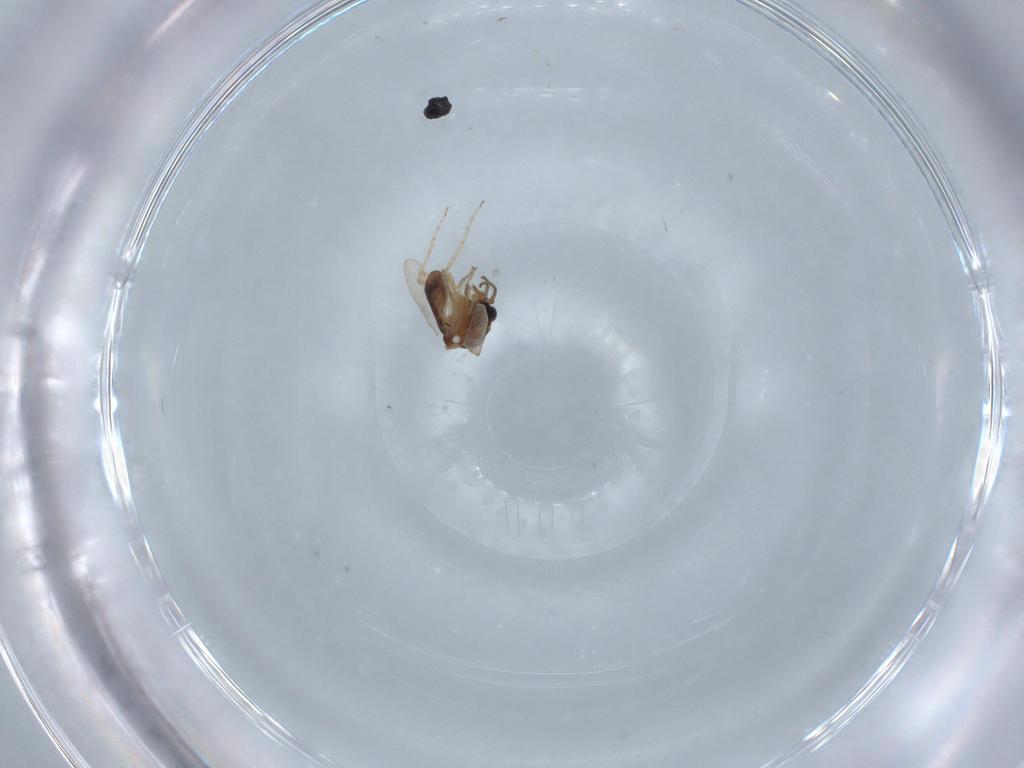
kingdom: Animalia
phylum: Arthropoda
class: Insecta
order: Diptera
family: Ceratopogonidae
